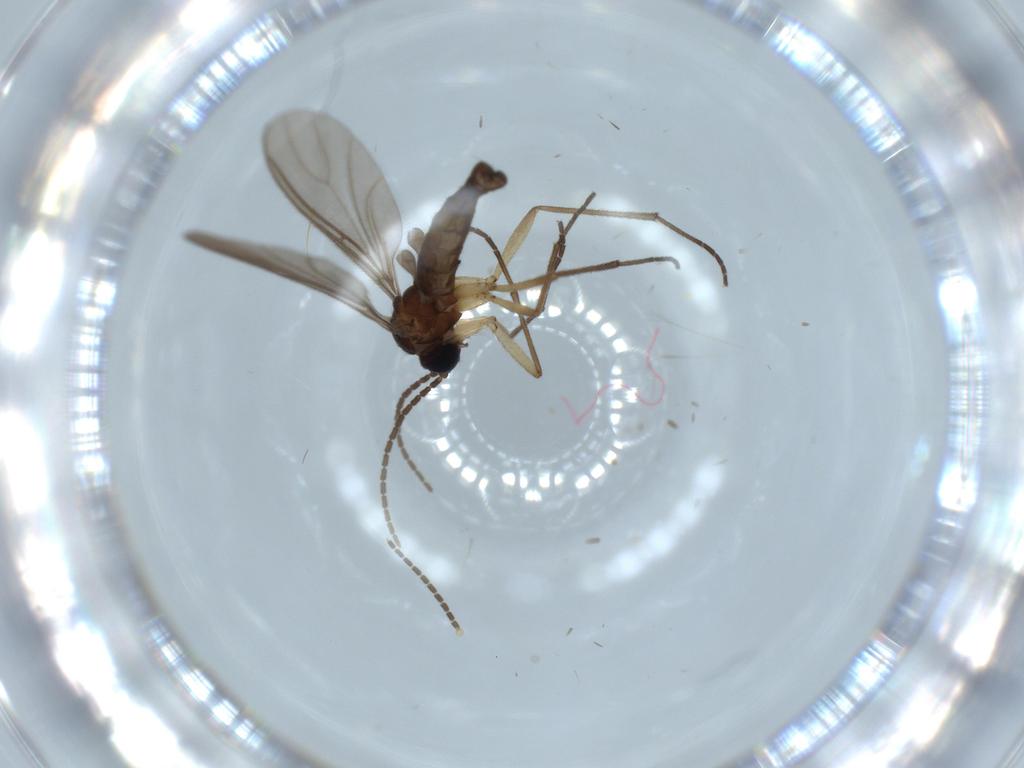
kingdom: Animalia
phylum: Arthropoda
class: Insecta
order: Diptera
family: Sciaridae
